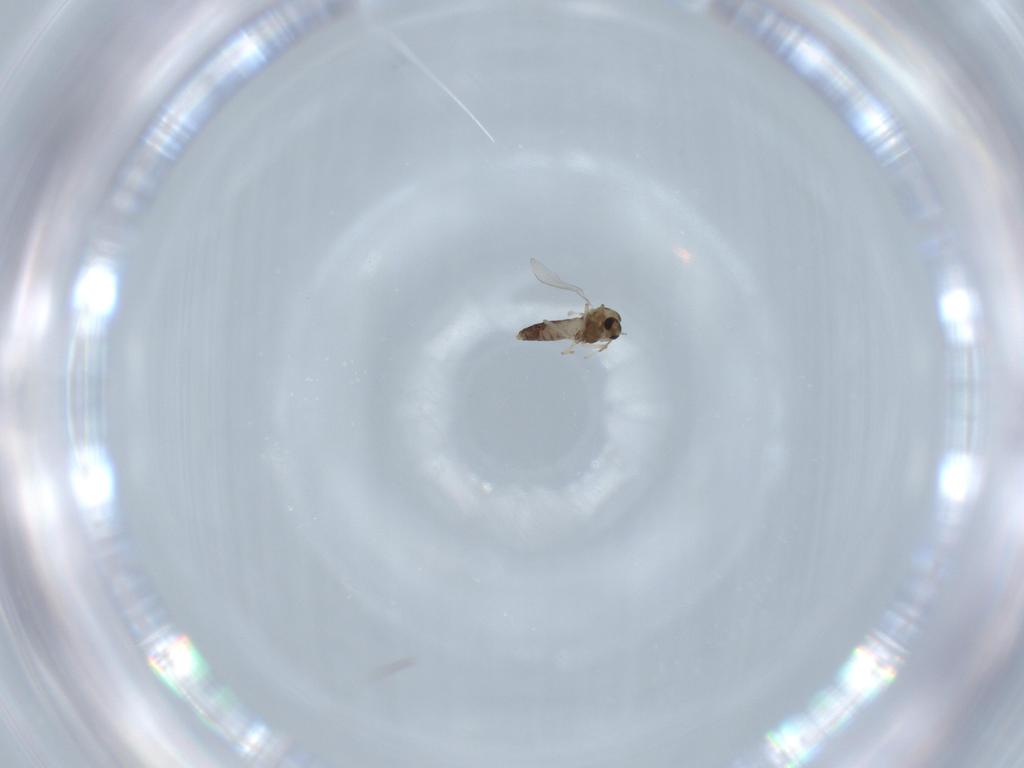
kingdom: Animalia
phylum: Arthropoda
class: Insecta
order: Diptera
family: Chironomidae
